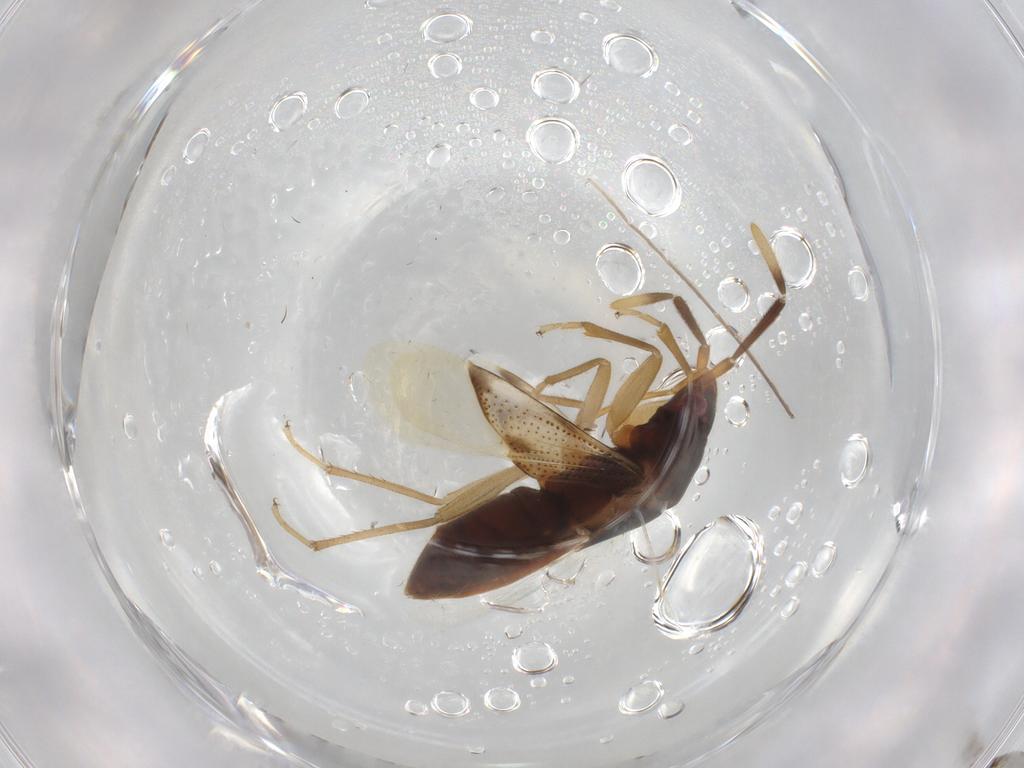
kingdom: Animalia
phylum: Arthropoda
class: Insecta
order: Hemiptera
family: Rhyparochromidae
